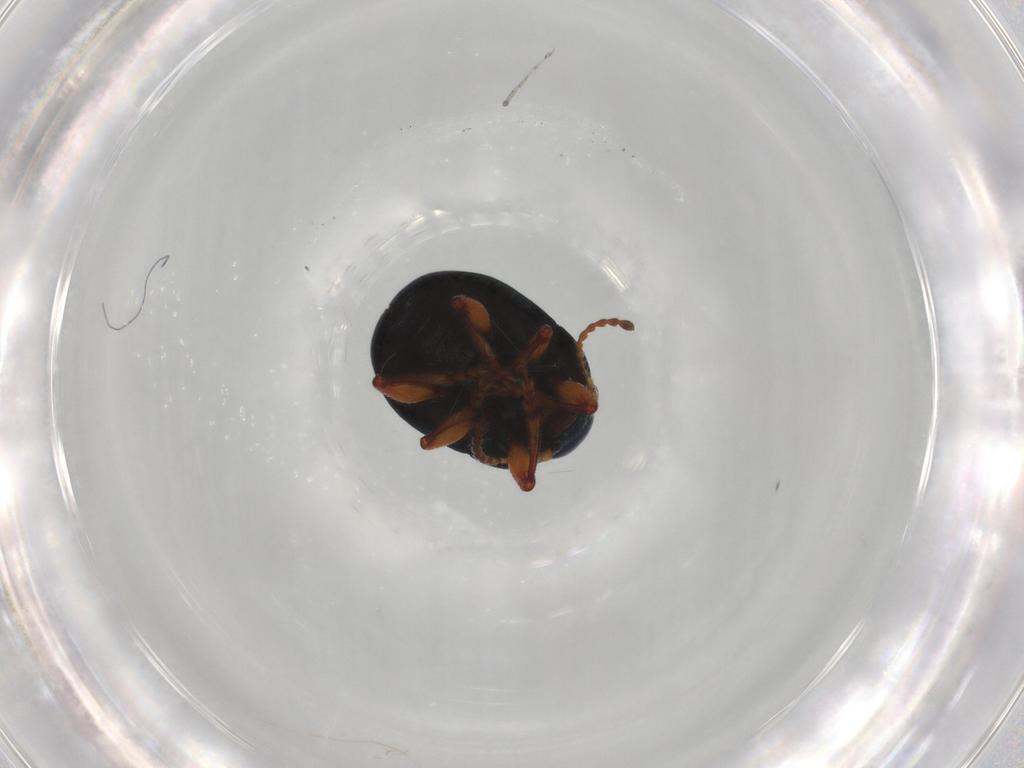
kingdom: Animalia
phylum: Arthropoda
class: Insecta
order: Coleoptera
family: Chrysomelidae
